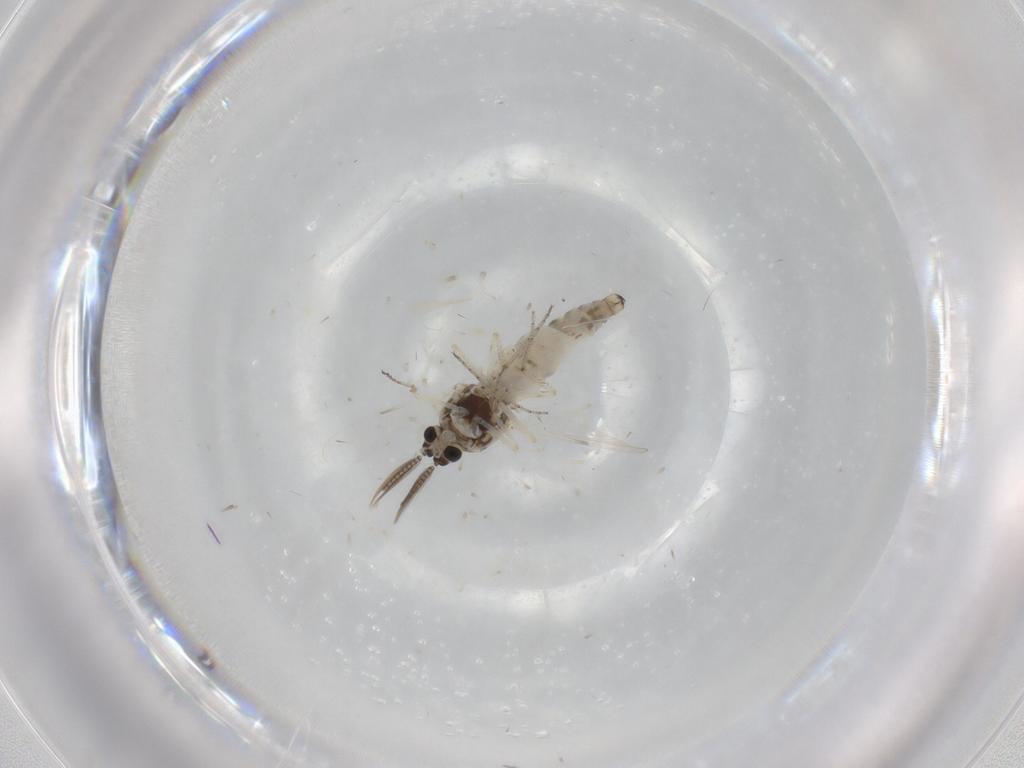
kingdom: Animalia
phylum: Arthropoda
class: Insecta
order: Diptera
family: Ceratopogonidae
